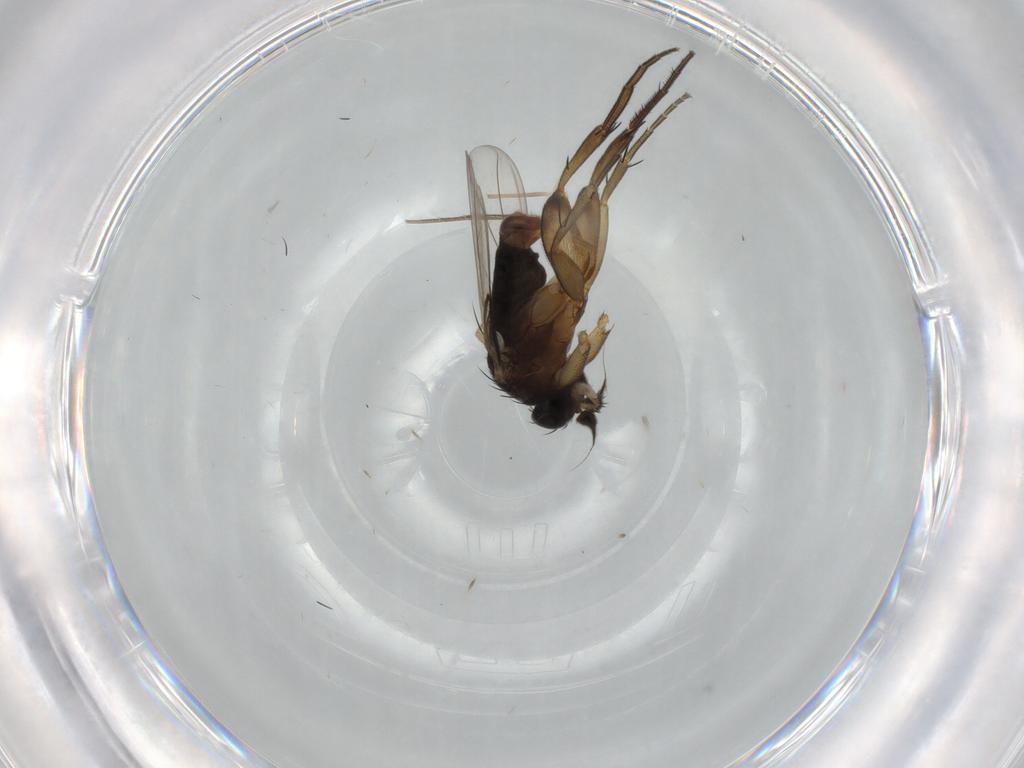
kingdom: Animalia
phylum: Arthropoda
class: Insecta
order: Diptera
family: Phoridae
